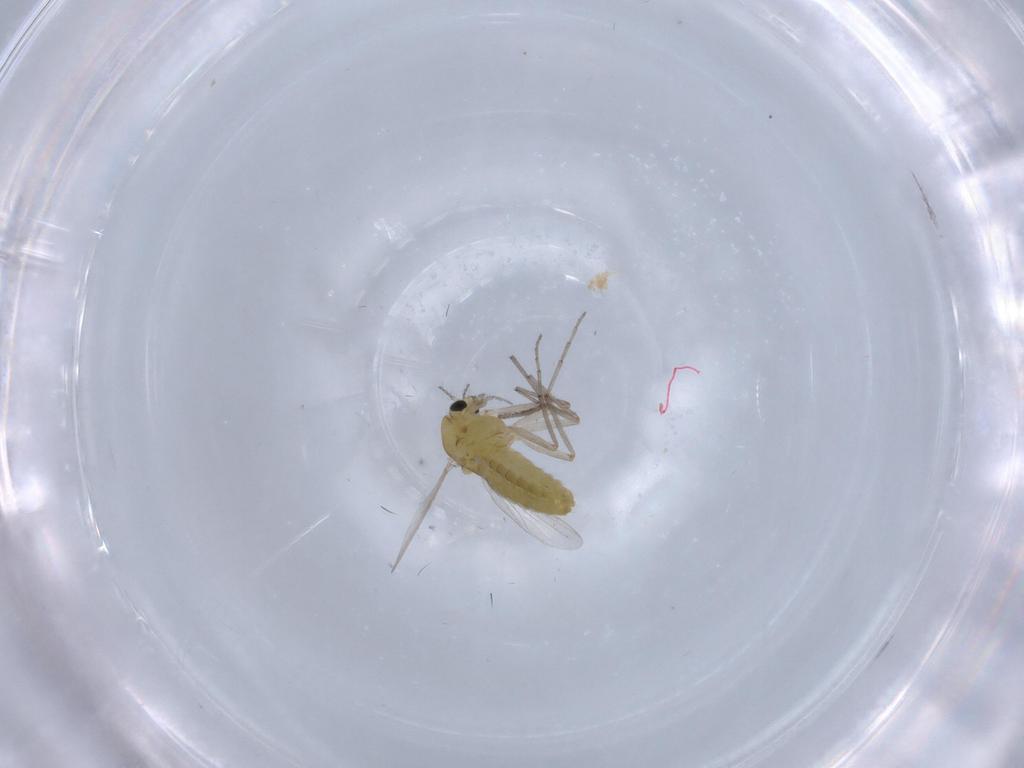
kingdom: Animalia
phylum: Arthropoda
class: Insecta
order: Diptera
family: Chironomidae
